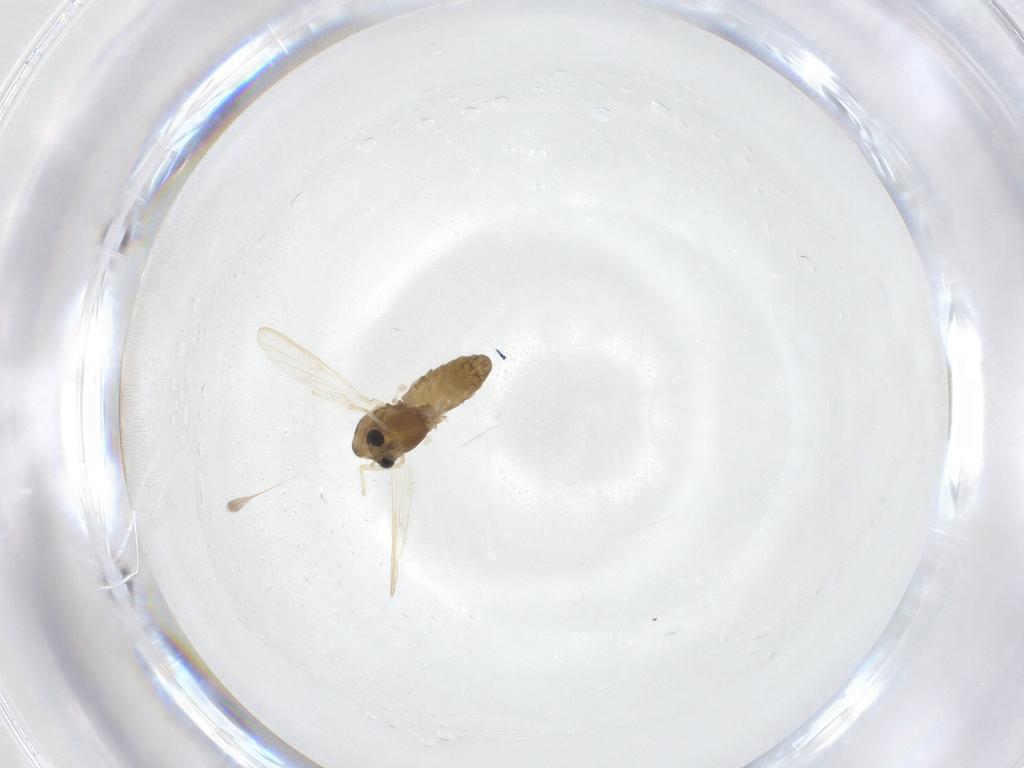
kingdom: Animalia
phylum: Arthropoda
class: Insecta
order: Diptera
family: Chironomidae
